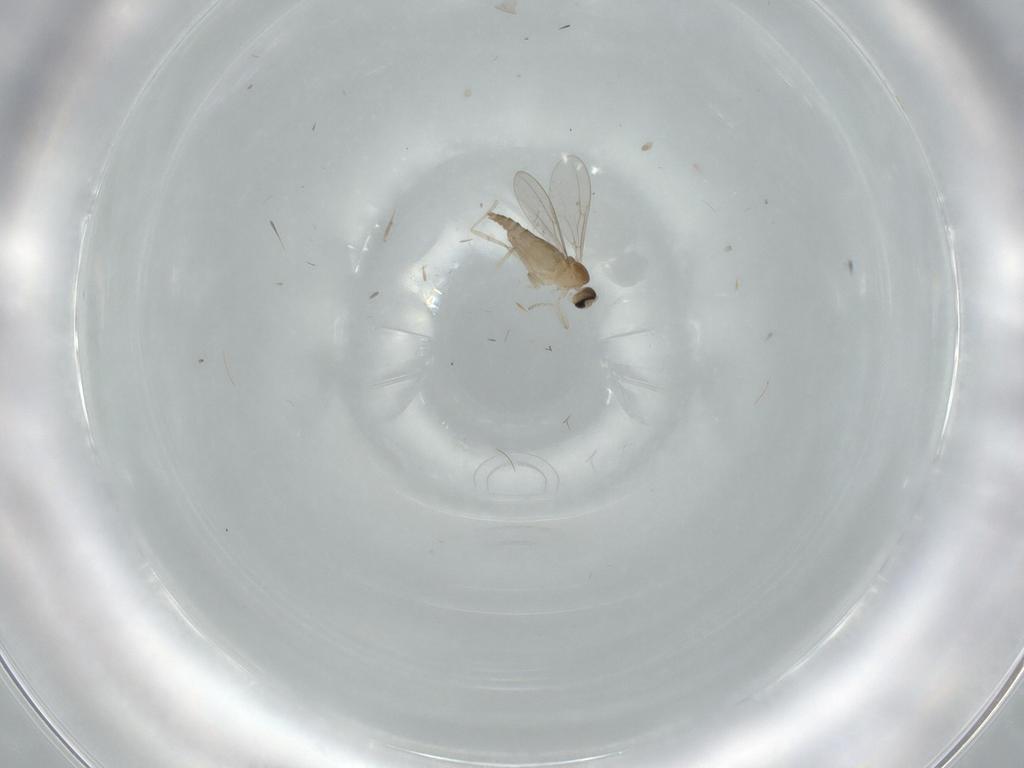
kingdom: Animalia
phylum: Arthropoda
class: Insecta
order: Diptera
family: Cecidomyiidae
